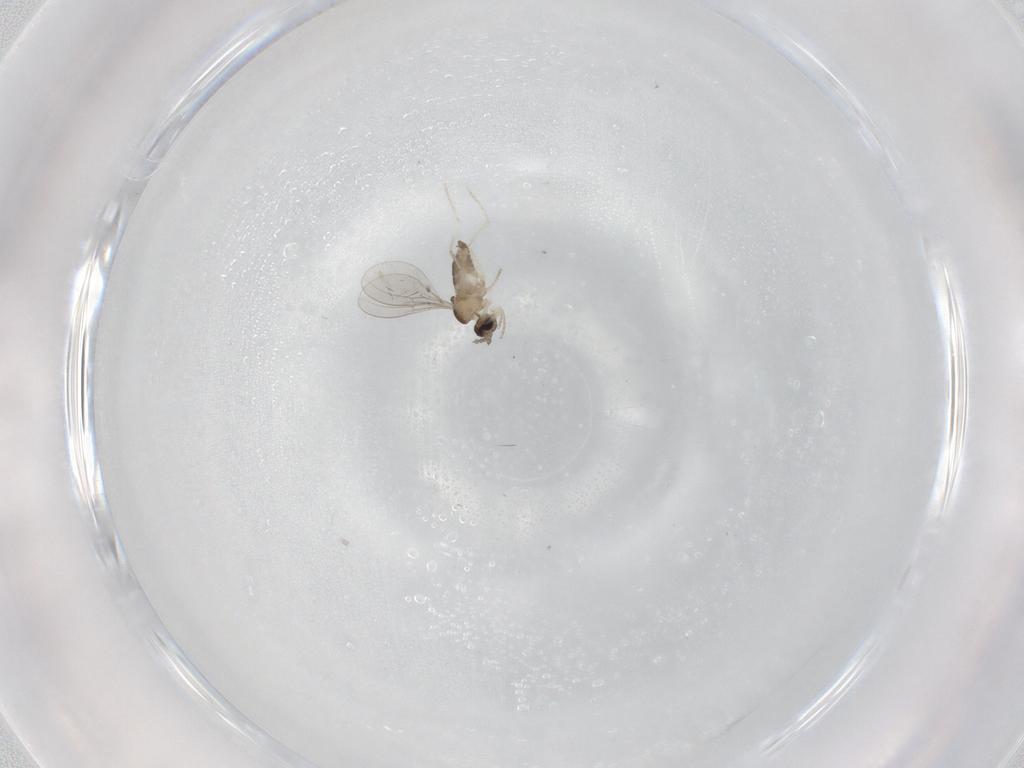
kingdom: Animalia
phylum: Arthropoda
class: Insecta
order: Diptera
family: Cecidomyiidae
